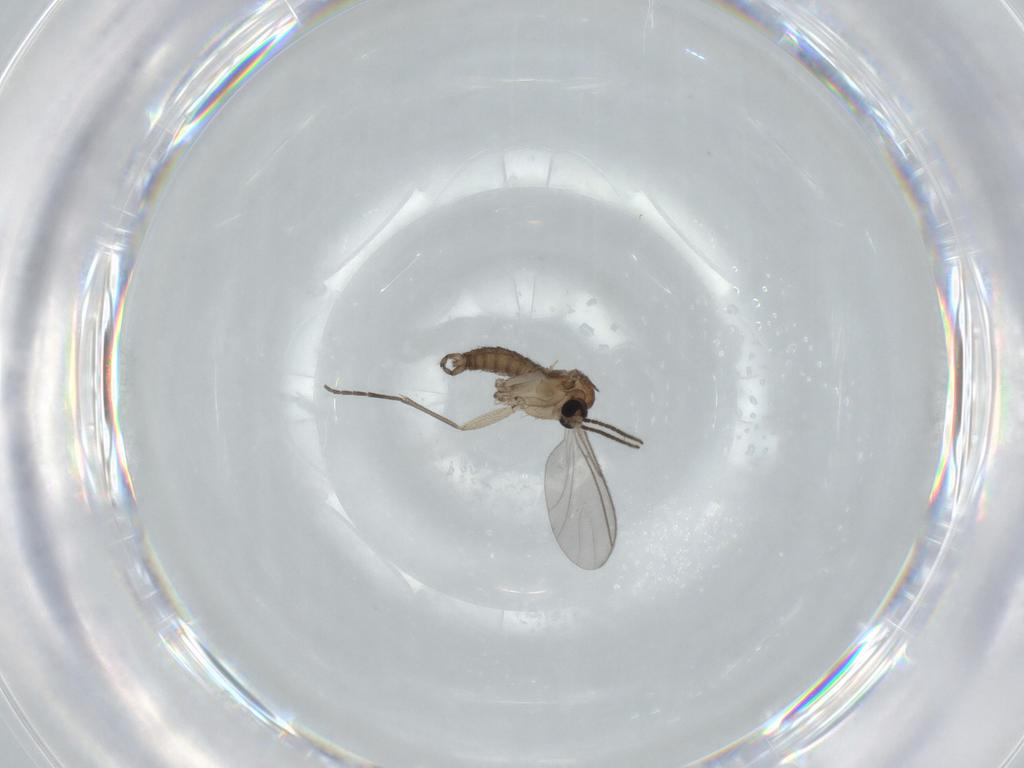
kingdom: Animalia
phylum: Arthropoda
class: Insecta
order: Diptera
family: Sciaridae
